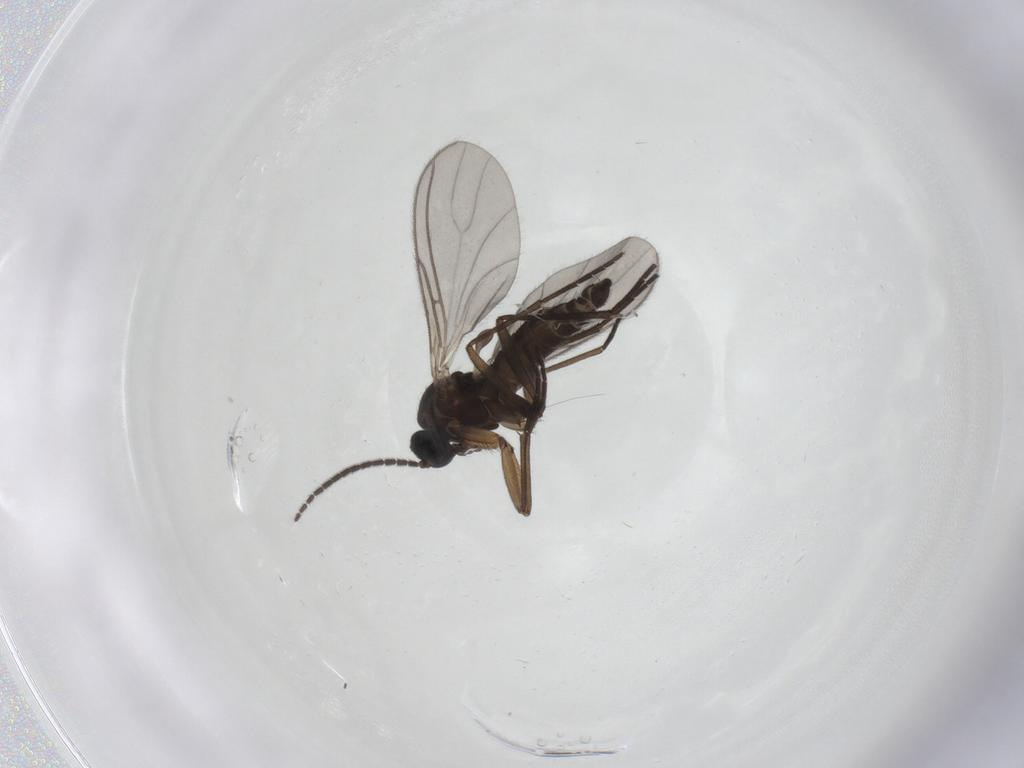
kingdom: Animalia
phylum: Arthropoda
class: Insecta
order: Diptera
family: Sciaridae
